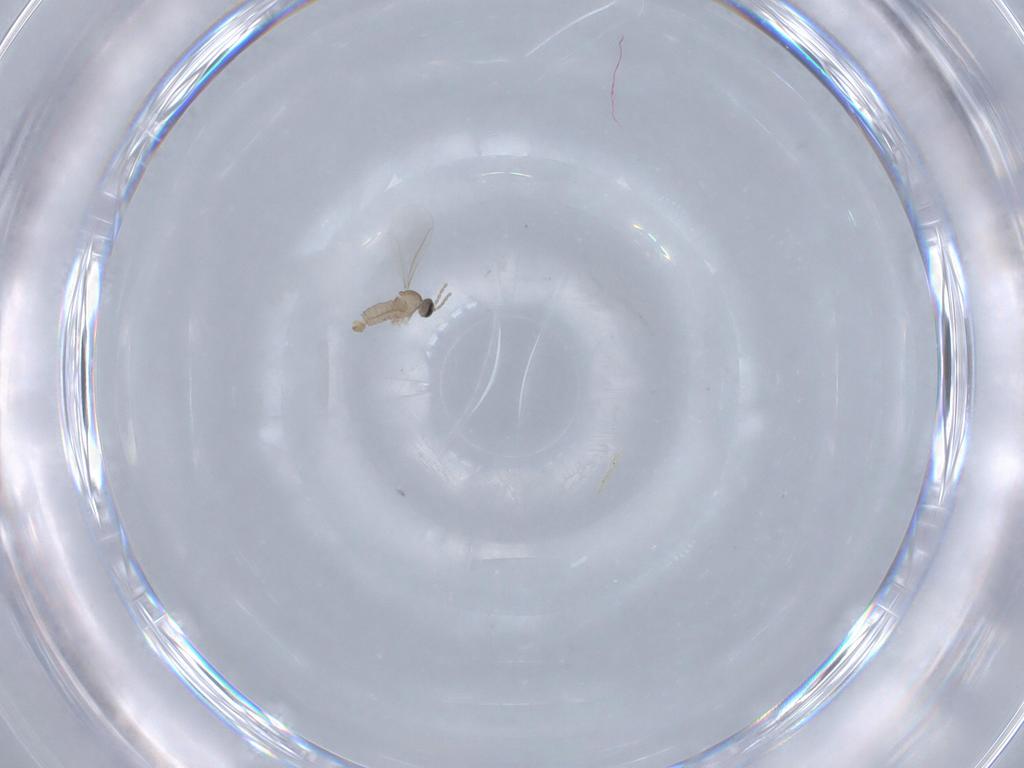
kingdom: Animalia
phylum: Arthropoda
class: Insecta
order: Diptera
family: Cecidomyiidae
